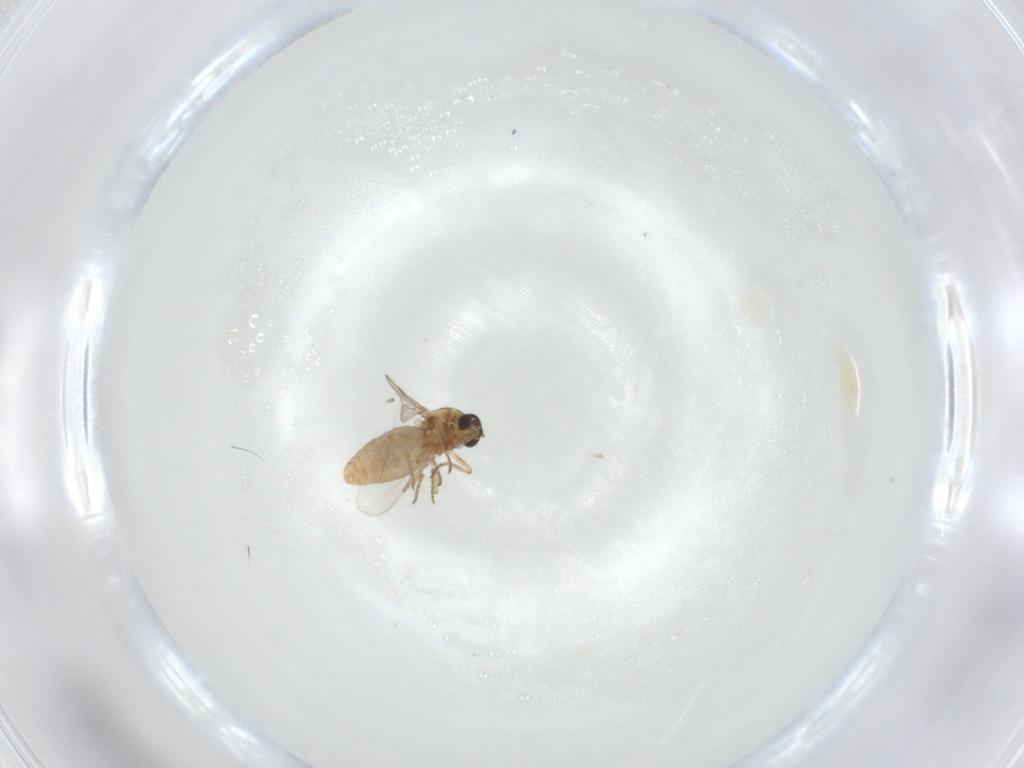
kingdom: Animalia
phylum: Arthropoda
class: Insecta
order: Diptera
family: Ceratopogonidae
